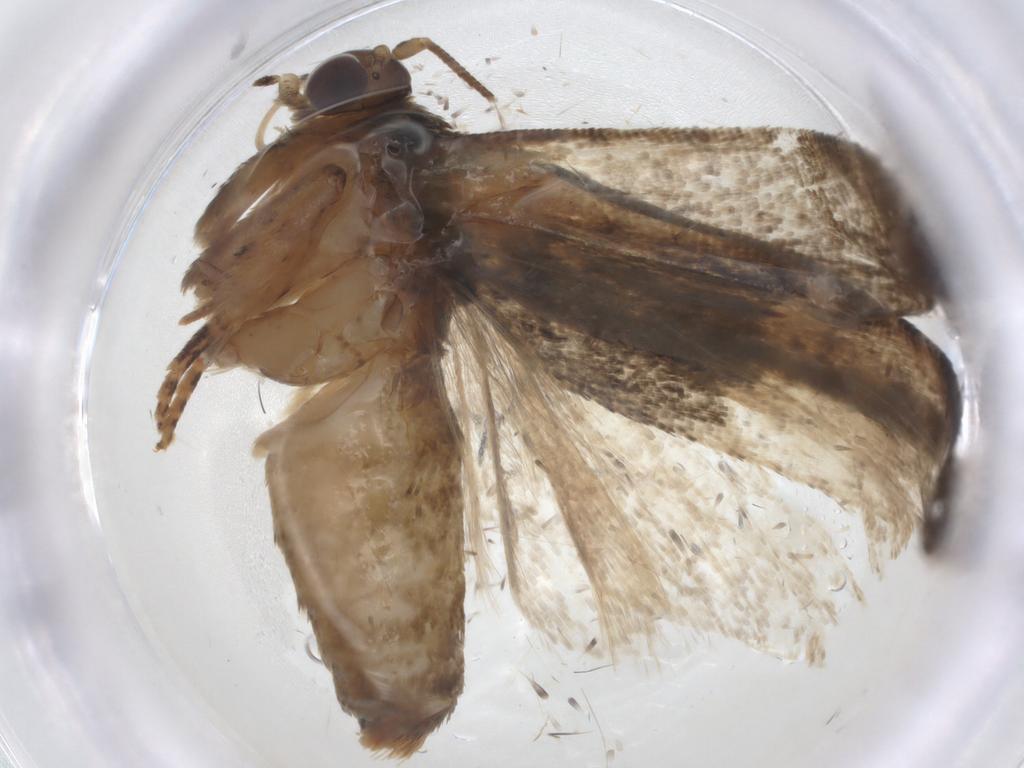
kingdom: Animalia
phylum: Arthropoda
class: Insecta
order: Lepidoptera
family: Tortricidae
